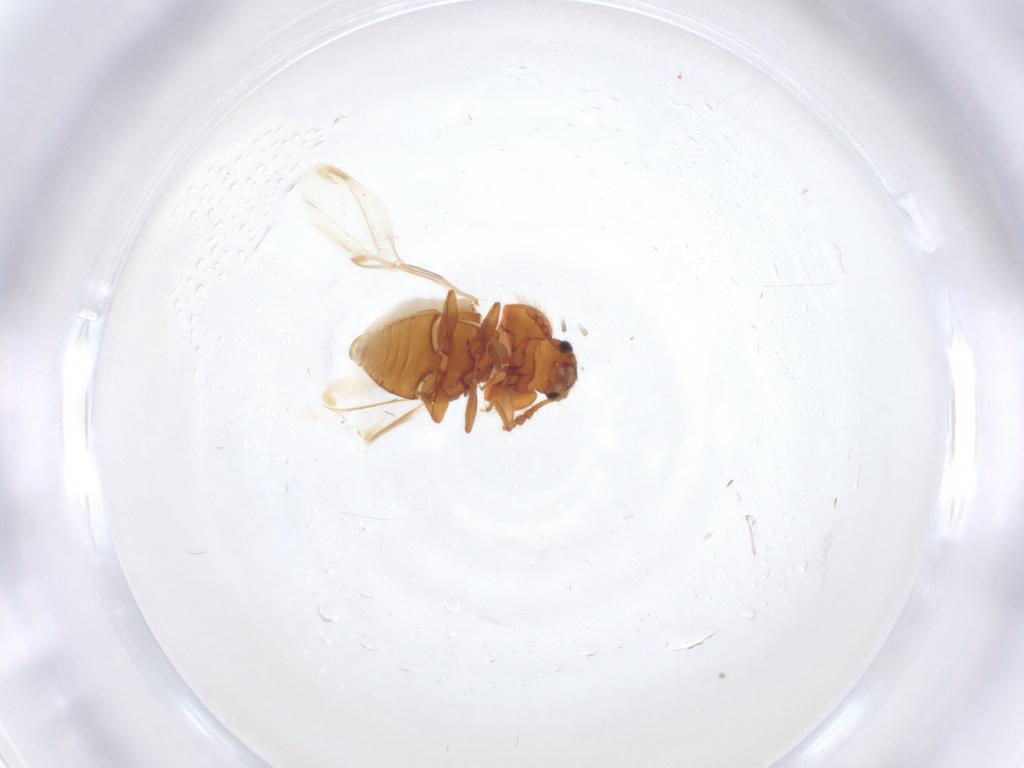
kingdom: Animalia
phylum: Arthropoda
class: Insecta
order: Coleoptera
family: Anamorphidae
